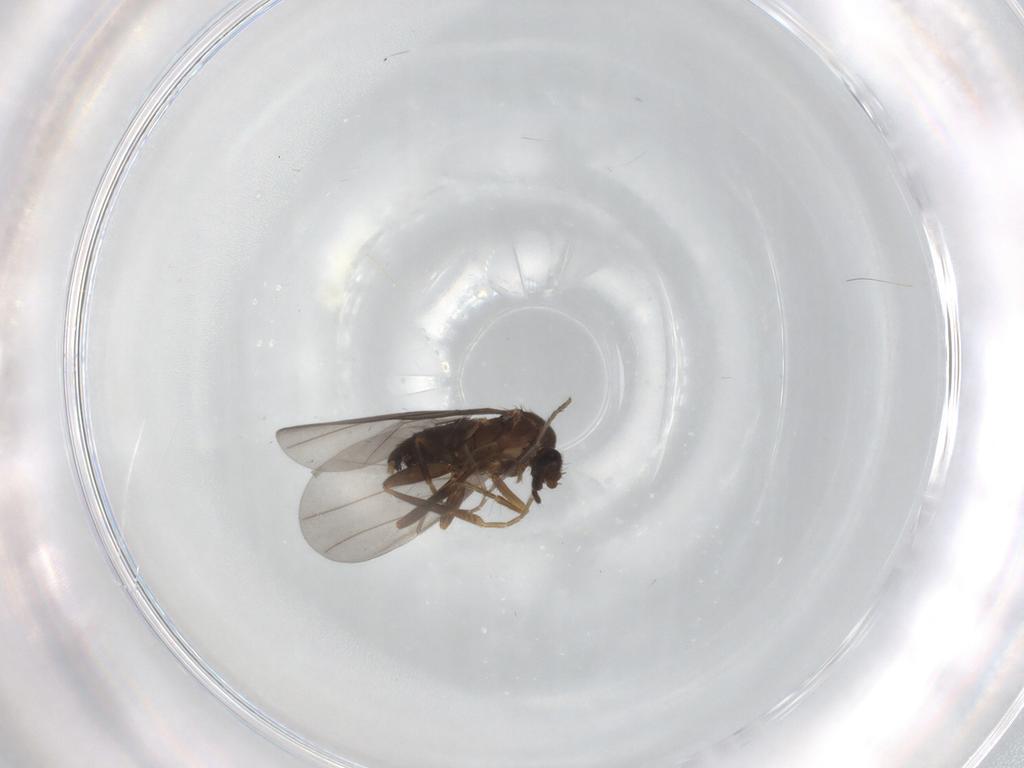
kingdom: Animalia
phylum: Arthropoda
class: Insecta
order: Diptera
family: Psychodidae
